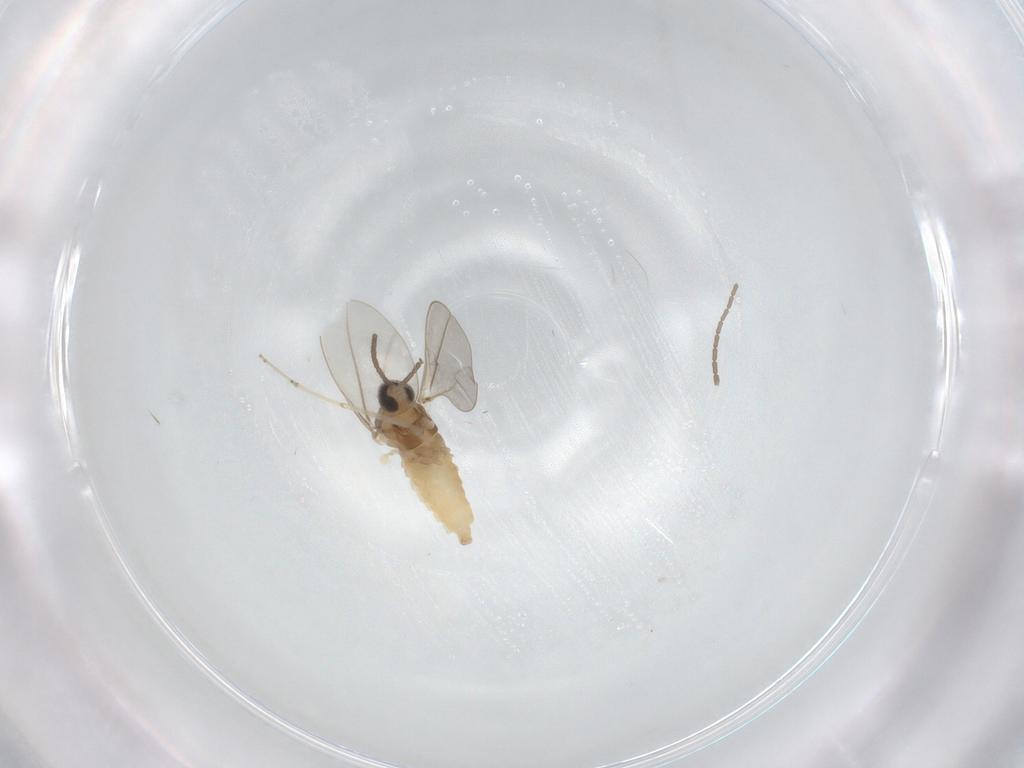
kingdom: Animalia
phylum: Arthropoda
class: Insecta
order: Diptera
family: Cecidomyiidae
